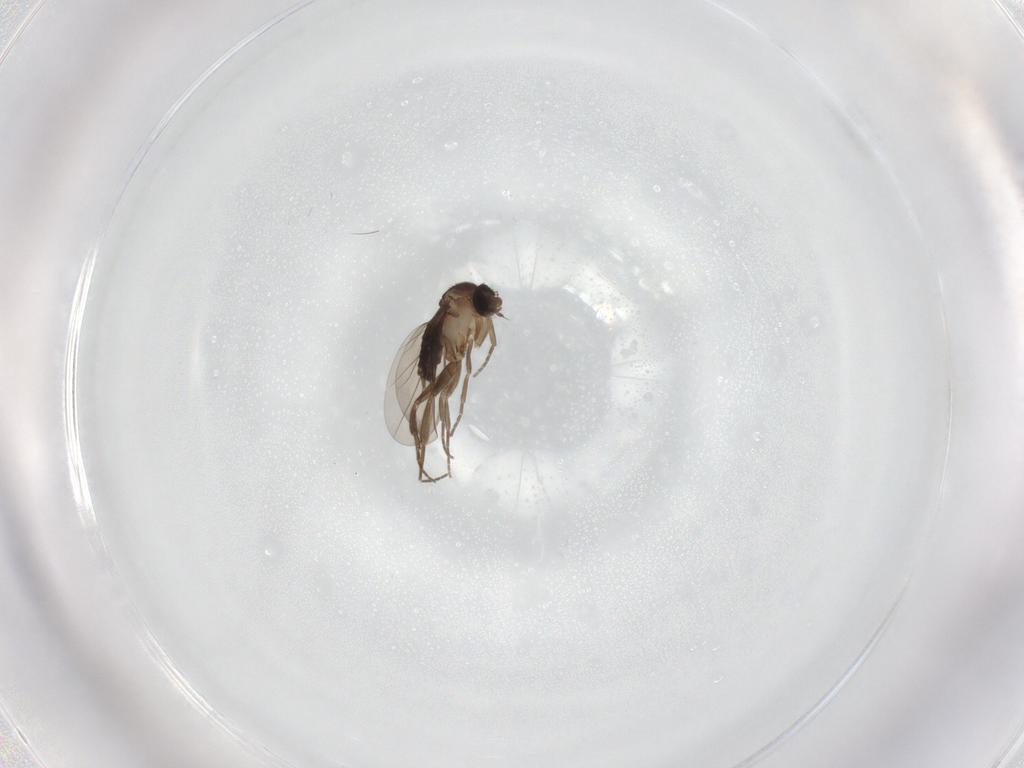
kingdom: Animalia
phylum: Arthropoda
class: Insecta
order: Diptera
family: Phoridae
